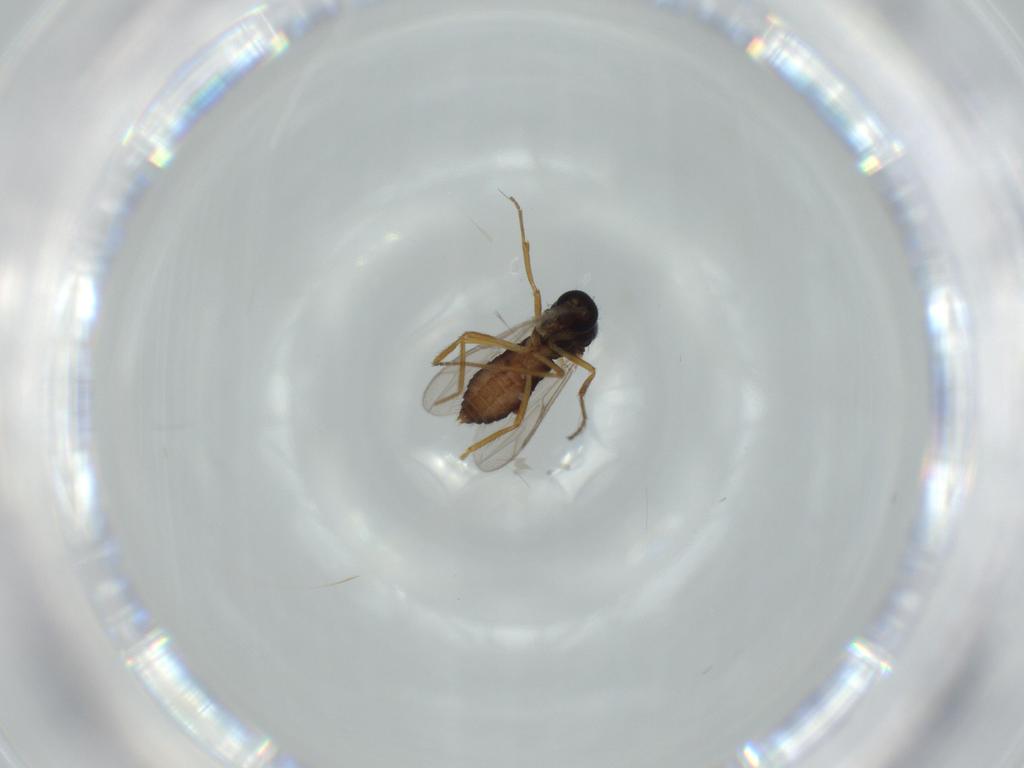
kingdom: Animalia
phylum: Arthropoda
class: Insecta
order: Diptera
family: Ceratopogonidae
